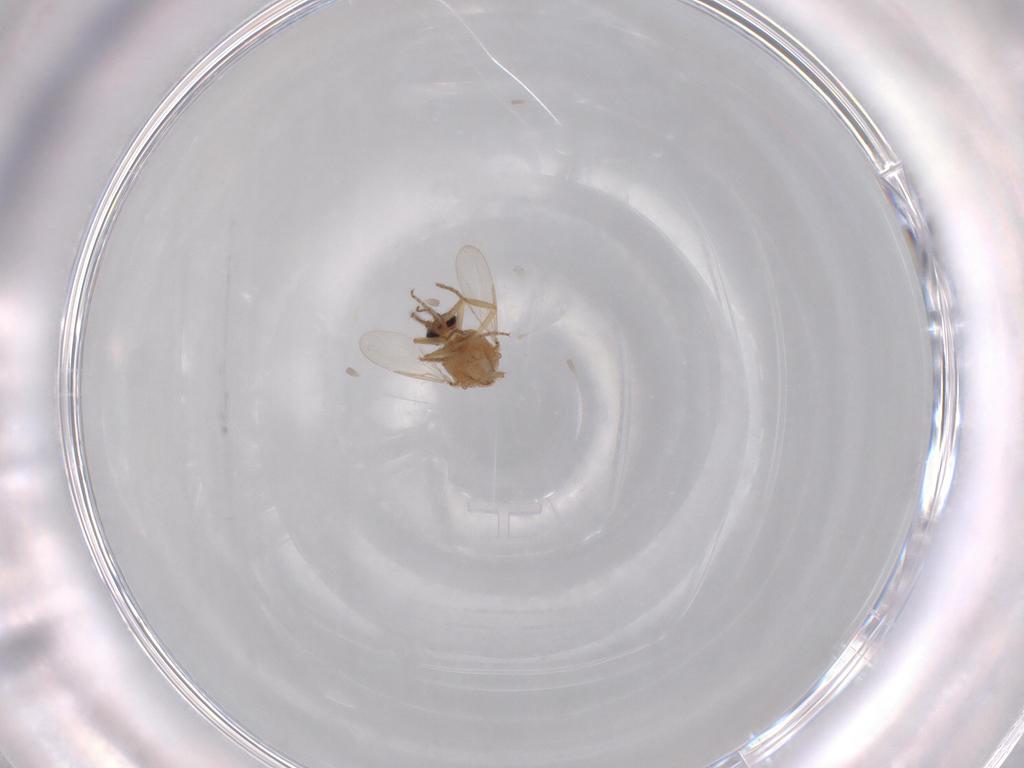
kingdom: Animalia
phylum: Arthropoda
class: Insecta
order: Diptera
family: Ceratopogonidae
